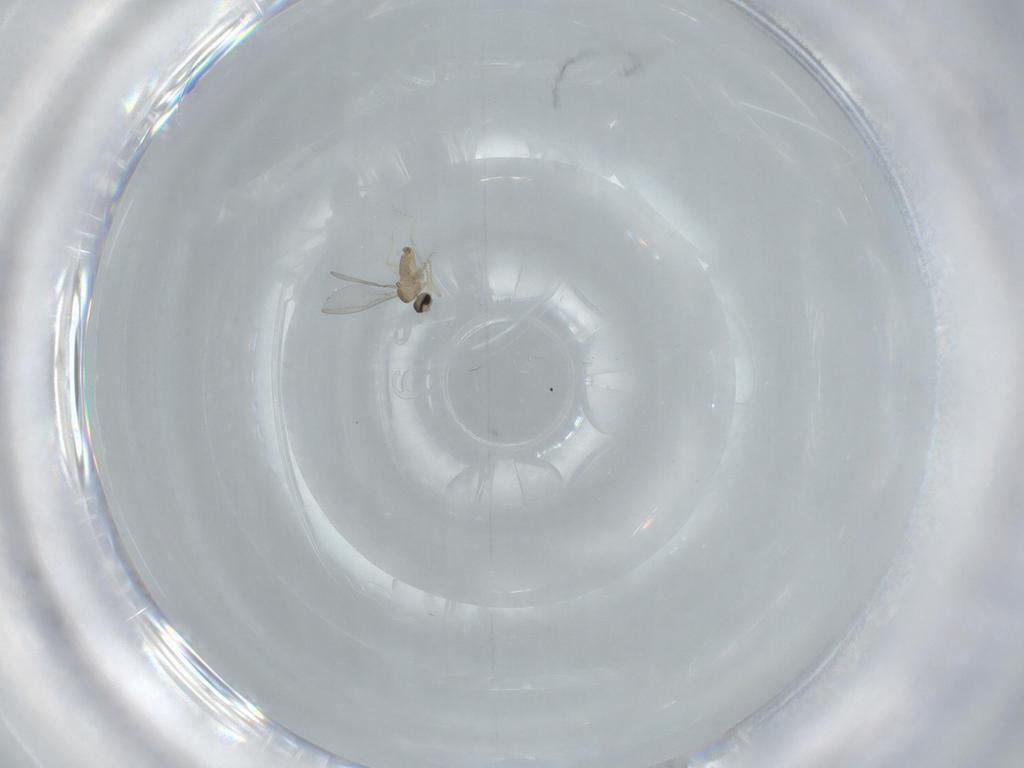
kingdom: Animalia
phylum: Arthropoda
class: Insecta
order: Diptera
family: Cecidomyiidae
